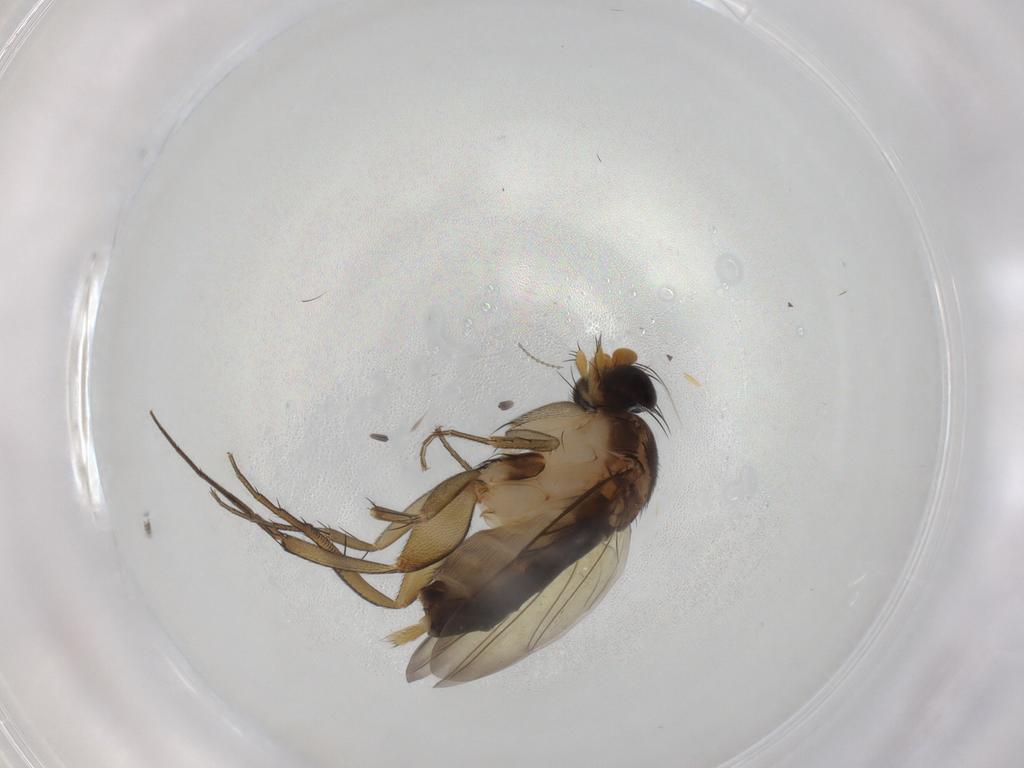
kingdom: Animalia
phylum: Arthropoda
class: Insecta
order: Diptera
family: Phoridae
